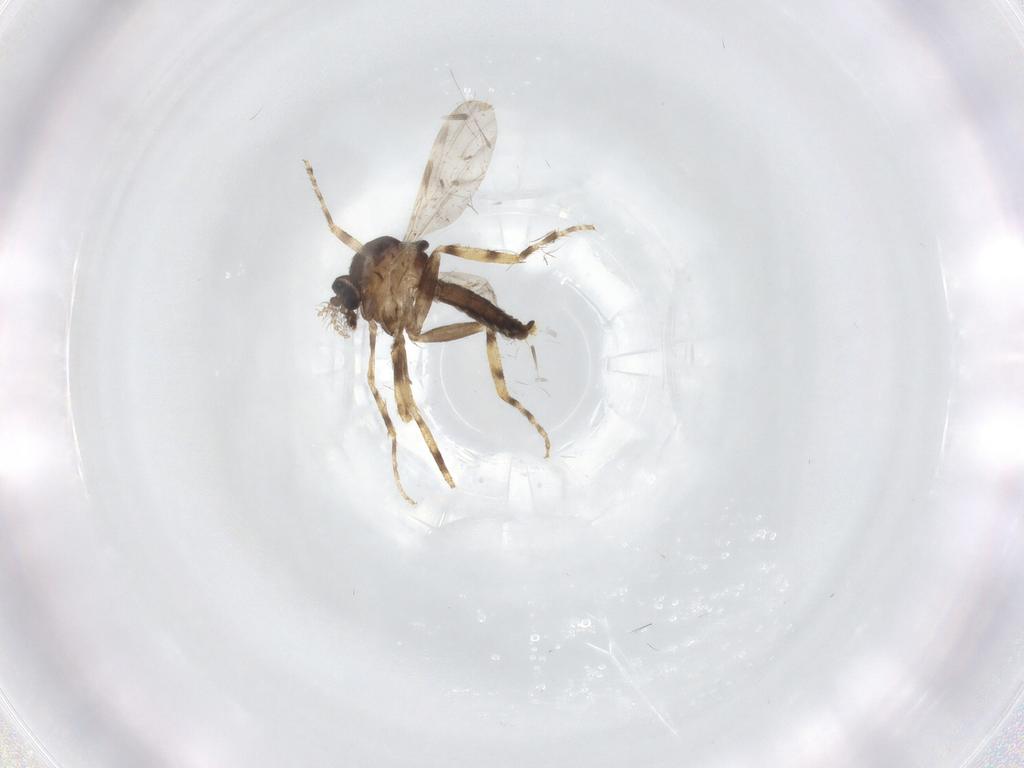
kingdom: Animalia
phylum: Arthropoda
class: Insecta
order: Diptera
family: Ceratopogonidae
